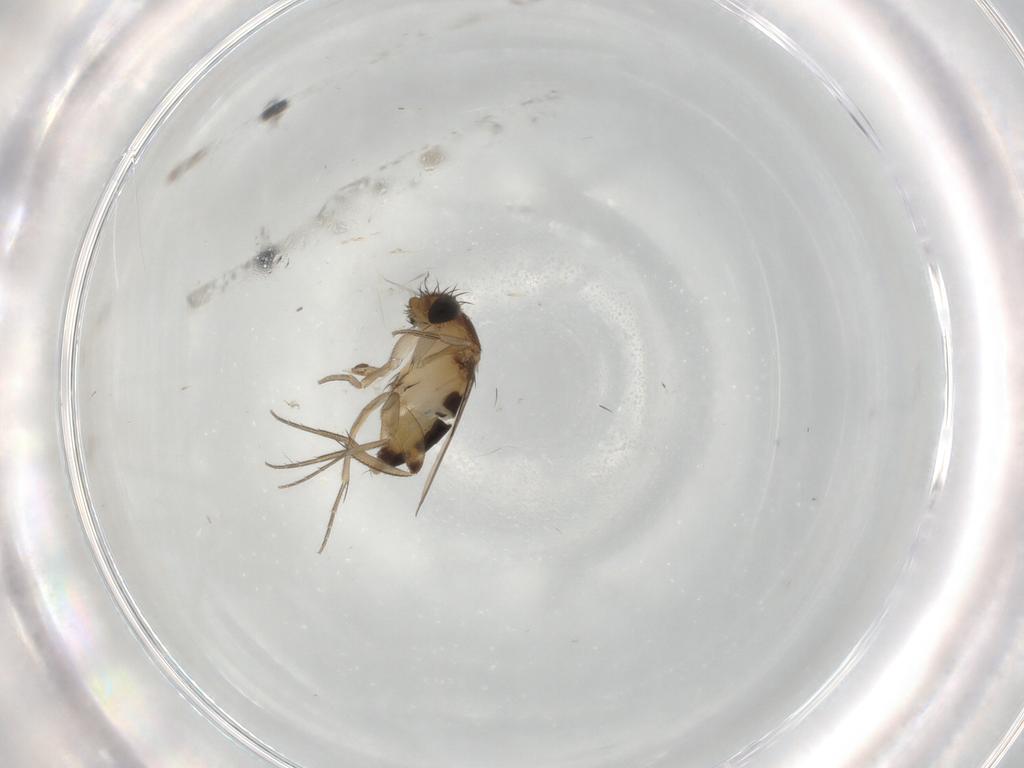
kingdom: Animalia
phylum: Arthropoda
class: Insecta
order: Diptera
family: Phoridae
